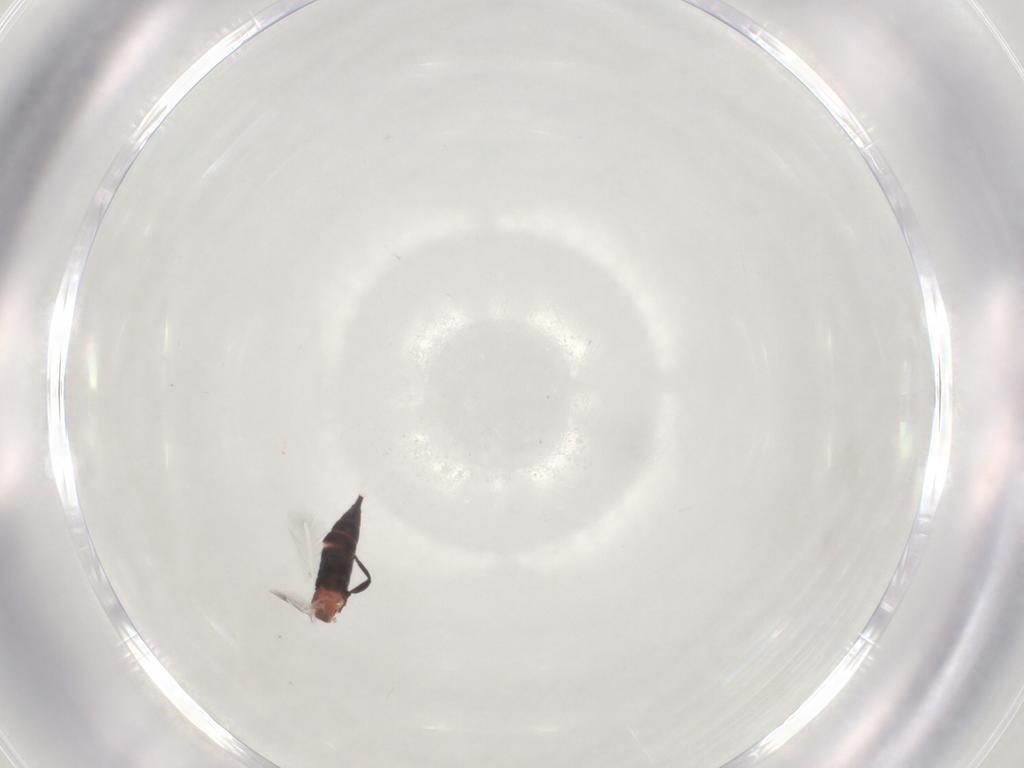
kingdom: Animalia
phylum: Arthropoda
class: Insecta
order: Thysanoptera
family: Phlaeothripidae
